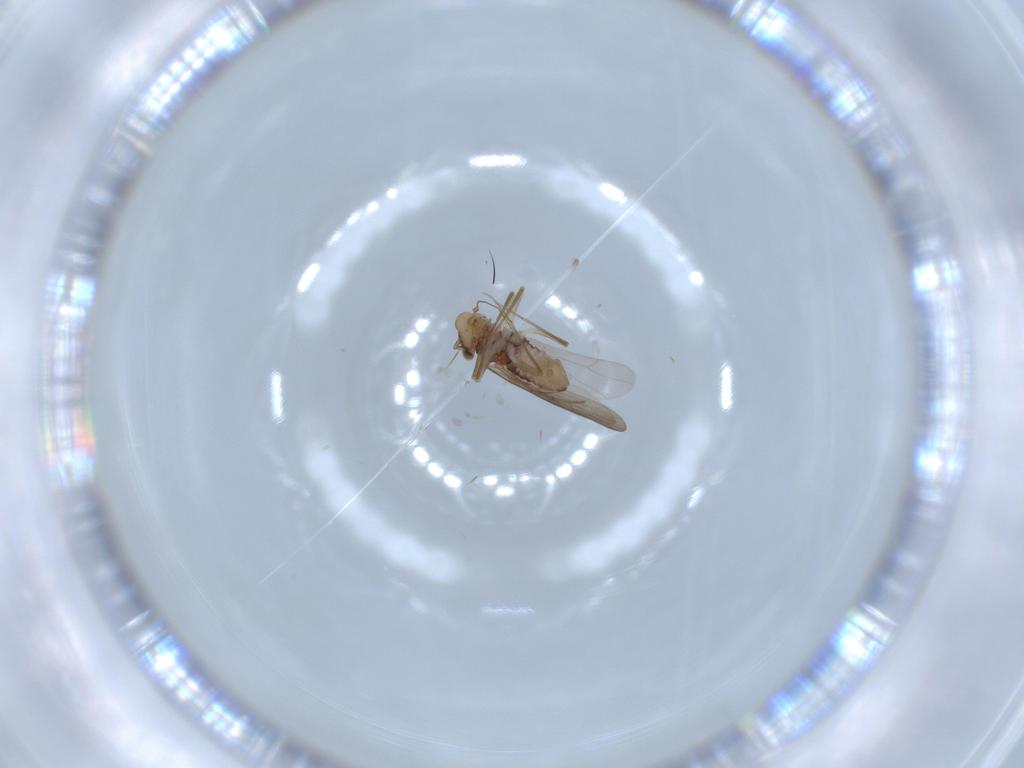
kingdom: Animalia
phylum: Arthropoda
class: Insecta
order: Psocodea
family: Lepidopsocidae
